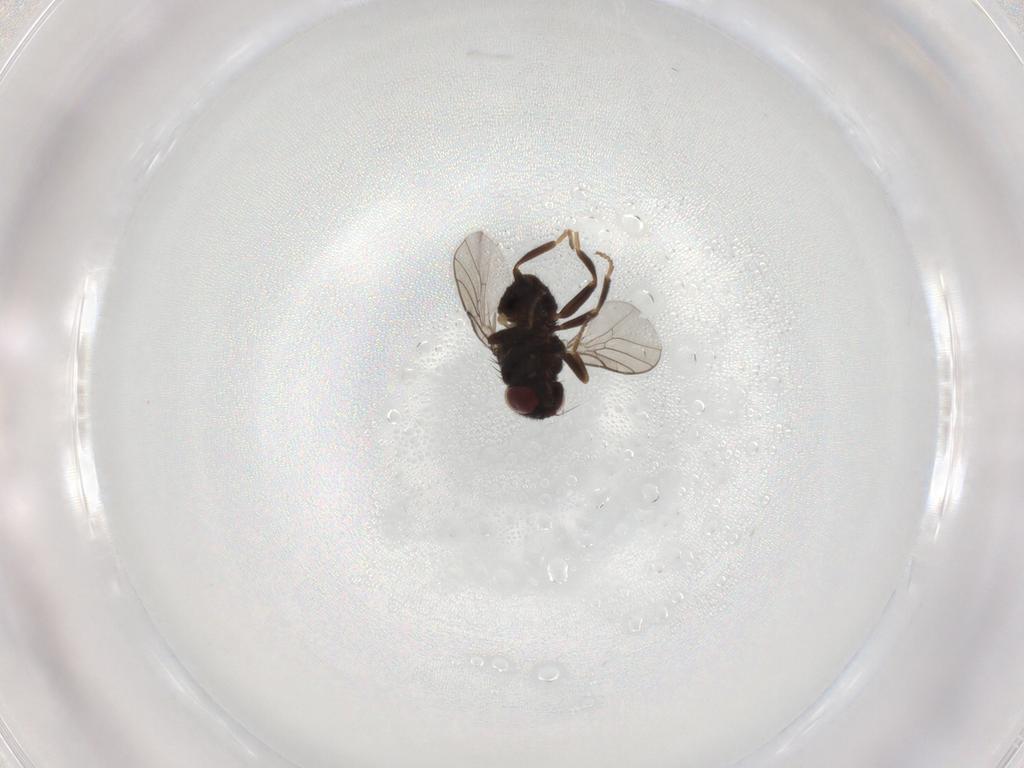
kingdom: Animalia
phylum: Arthropoda
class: Insecta
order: Diptera
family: Chloropidae
